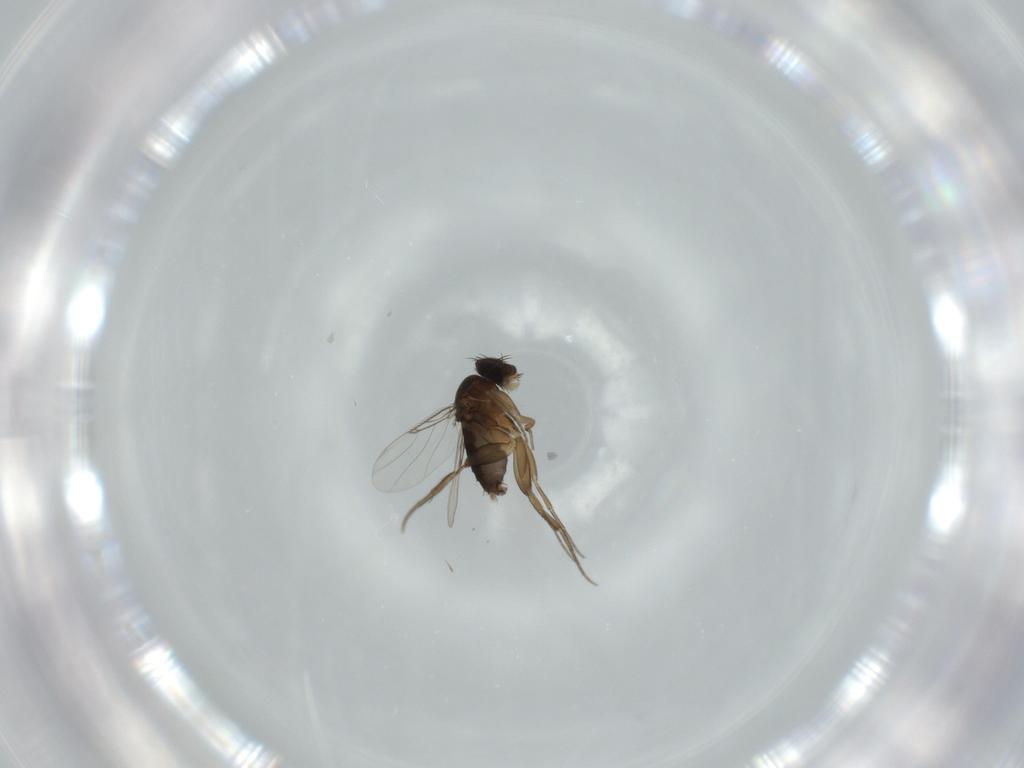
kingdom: Animalia
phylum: Arthropoda
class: Insecta
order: Diptera
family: Phoridae
